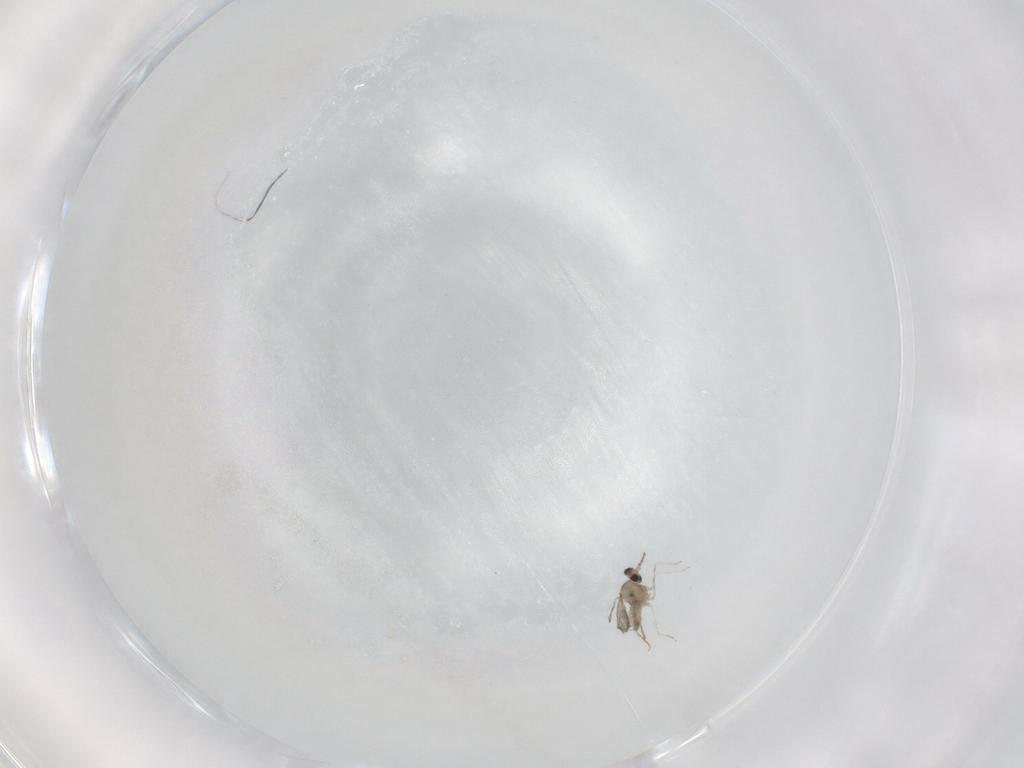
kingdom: Animalia
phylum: Arthropoda
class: Insecta
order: Diptera
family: Cecidomyiidae
